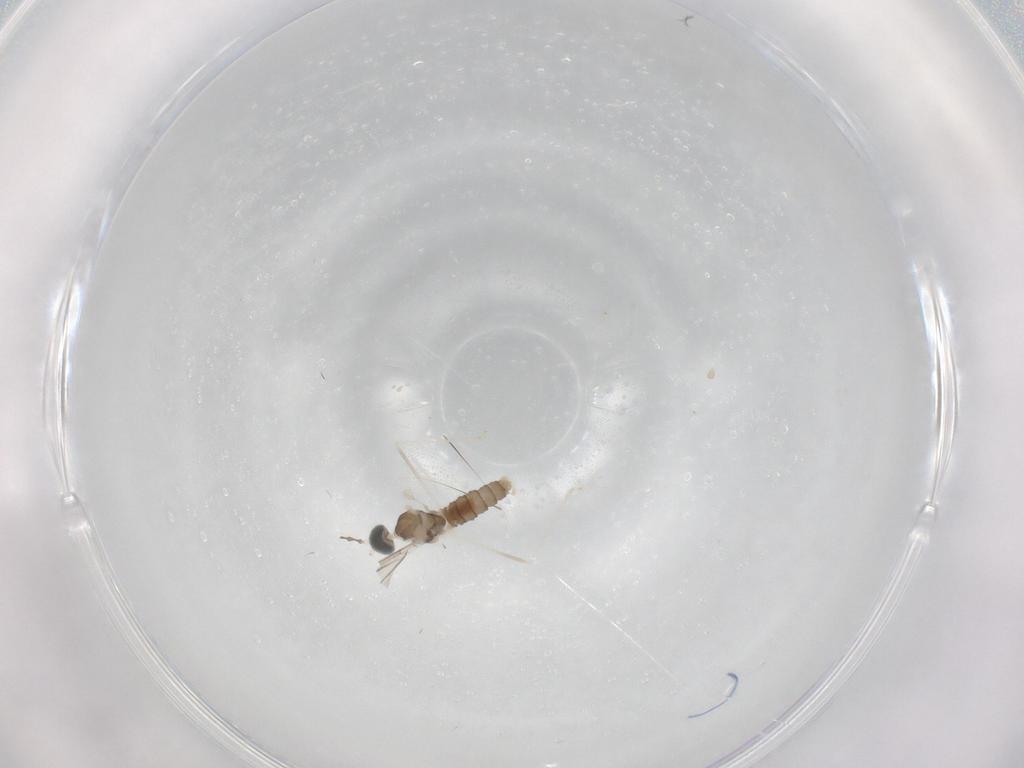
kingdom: Animalia
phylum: Arthropoda
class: Insecta
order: Diptera
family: Cecidomyiidae
